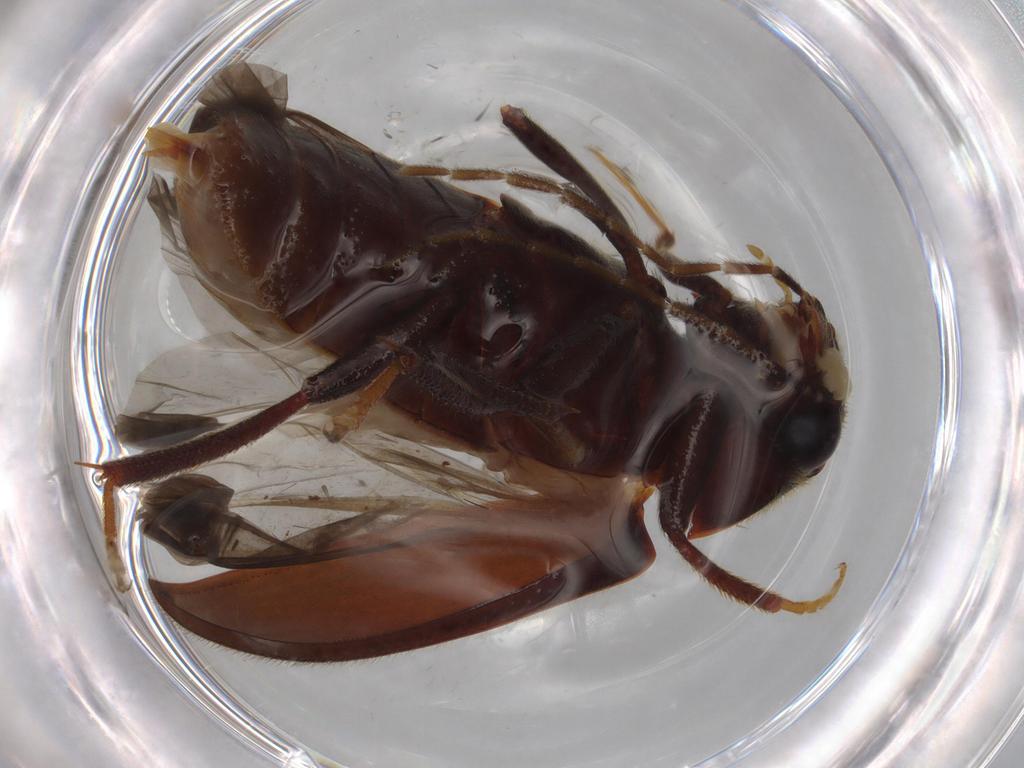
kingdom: Animalia
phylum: Arthropoda
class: Insecta
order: Coleoptera
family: Ptilodactylidae
